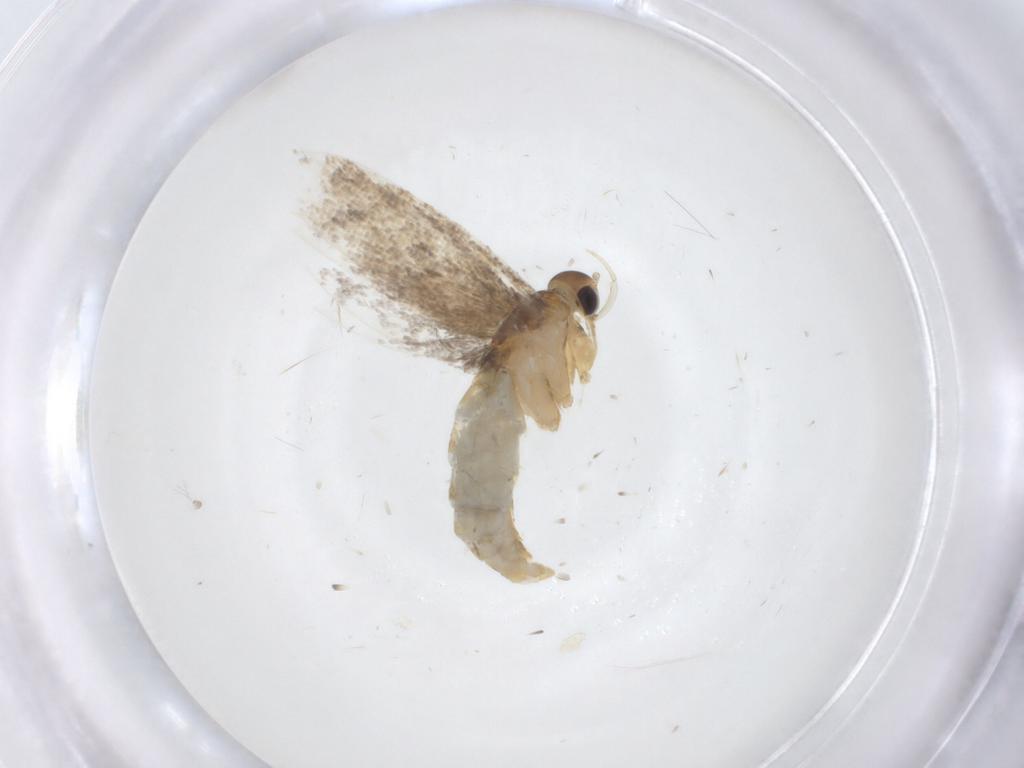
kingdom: Animalia
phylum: Arthropoda
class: Insecta
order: Lepidoptera
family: Oecophoridae
